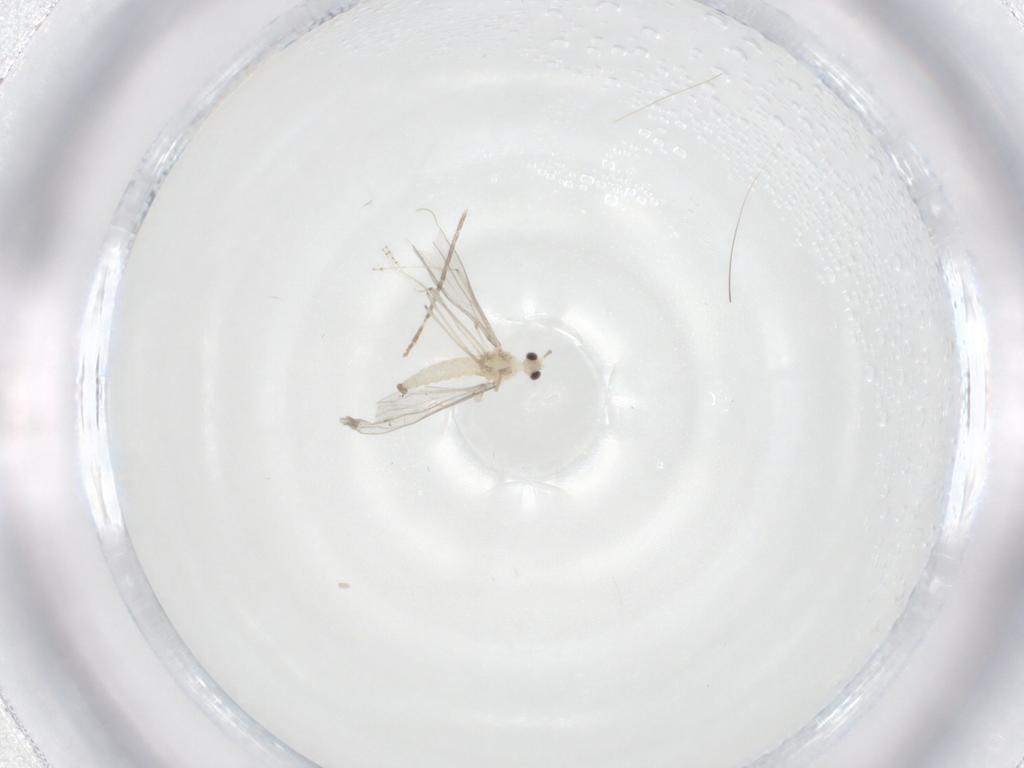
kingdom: Animalia
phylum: Arthropoda
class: Insecta
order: Diptera
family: Cecidomyiidae
